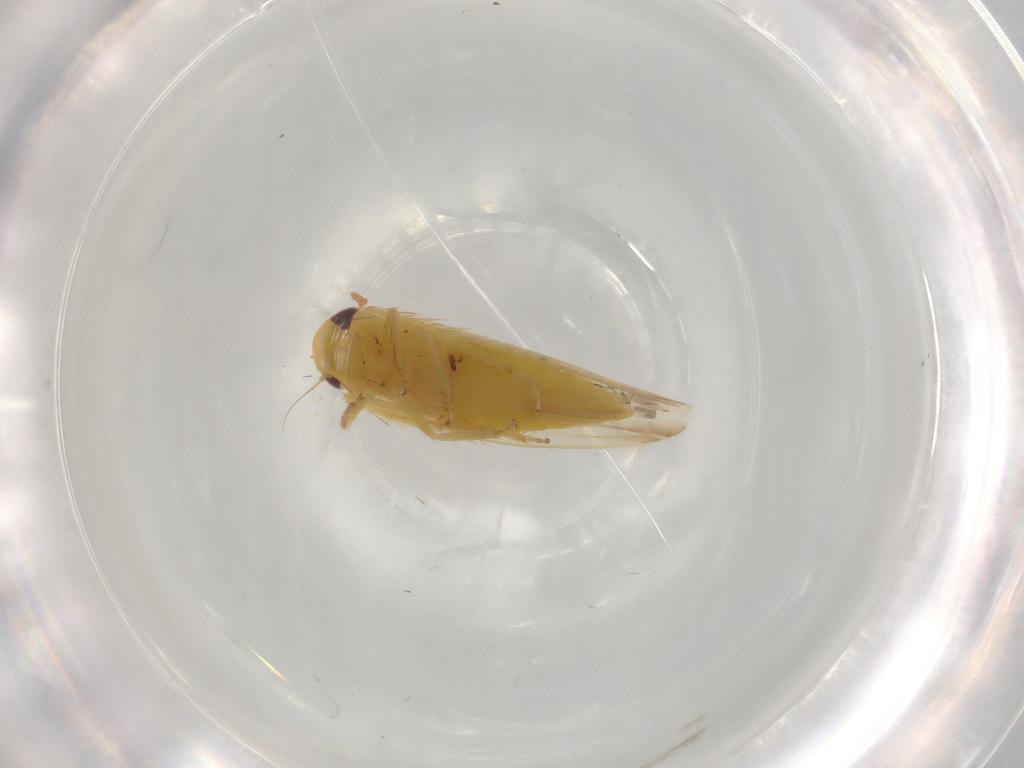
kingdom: Animalia
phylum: Arthropoda
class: Insecta
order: Hemiptera
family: Cicadellidae
